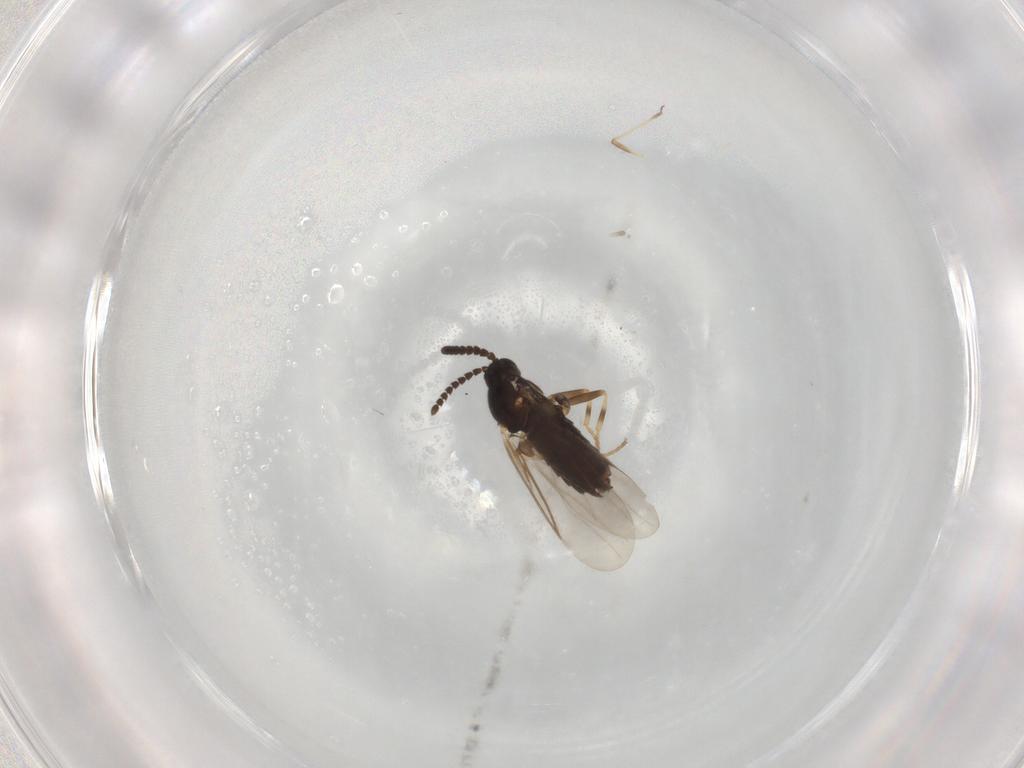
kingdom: Animalia
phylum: Arthropoda
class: Insecta
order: Diptera
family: Scatopsidae
